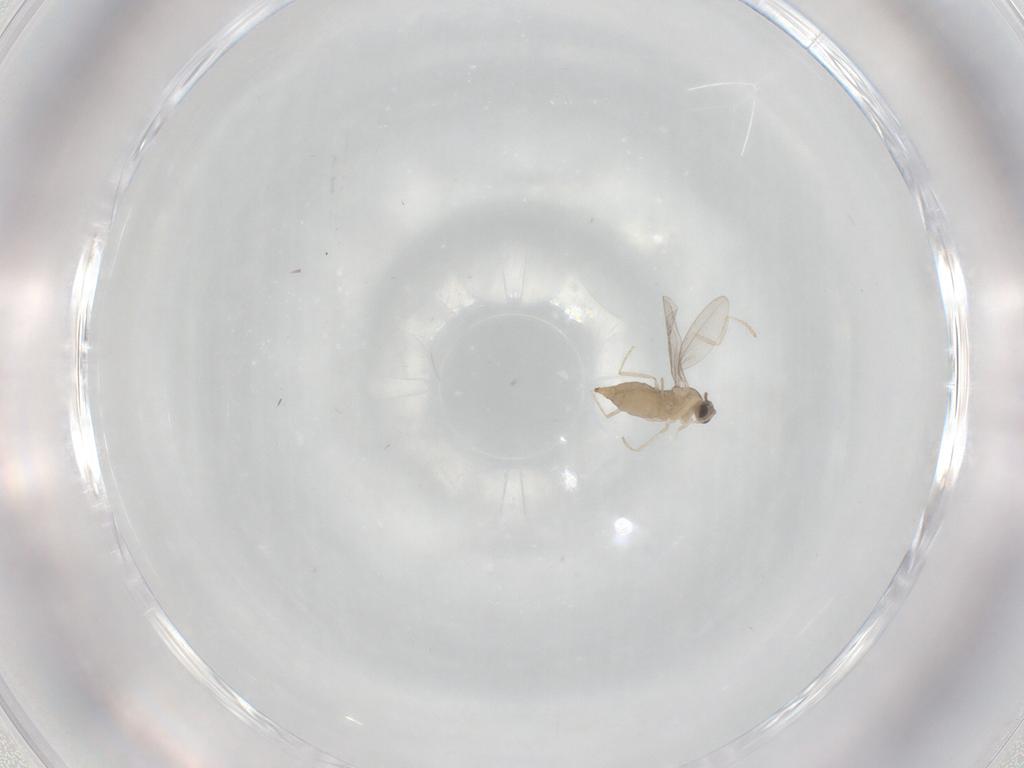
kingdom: Animalia
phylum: Arthropoda
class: Insecta
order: Diptera
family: Cecidomyiidae
